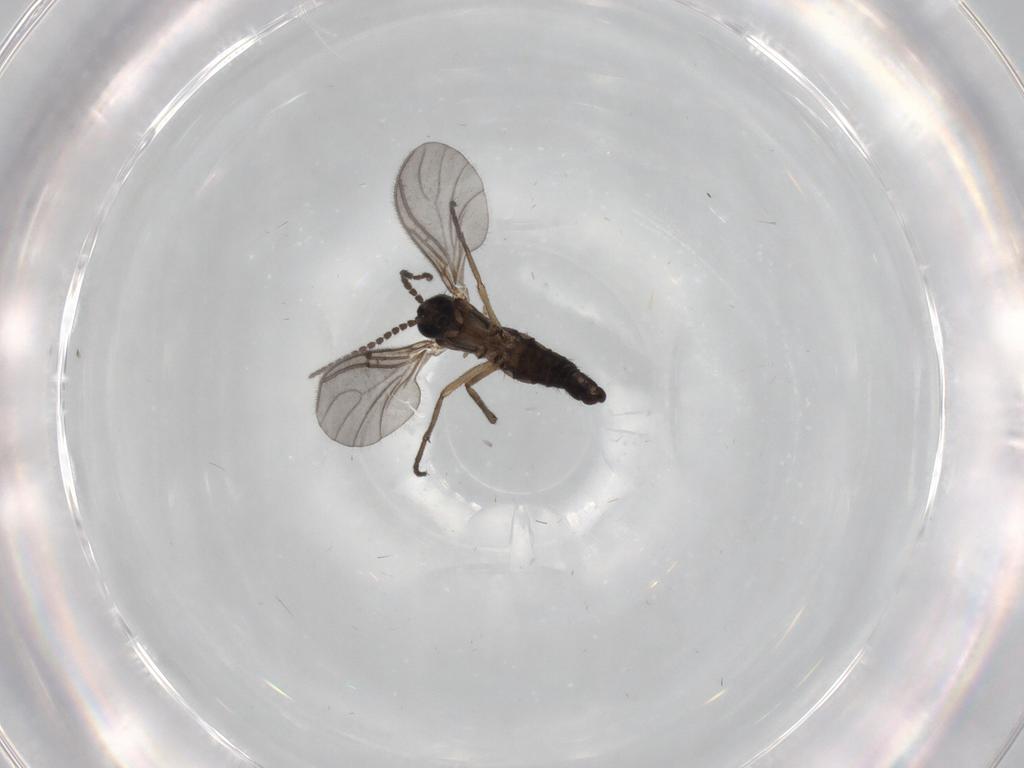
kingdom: Animalia
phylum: Arthropoda
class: Insecta
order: Diptera
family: Sciaridae
